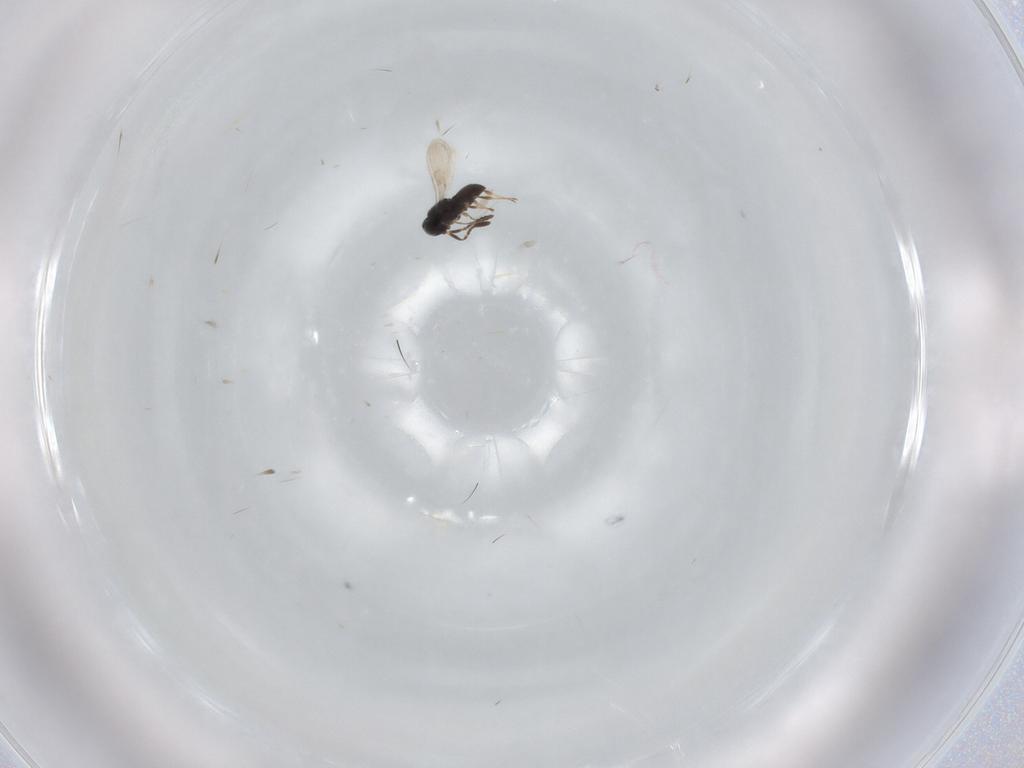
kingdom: Animalia
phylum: Arthropoda
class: Insecta
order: Hymenoptera
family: Scelionidae
